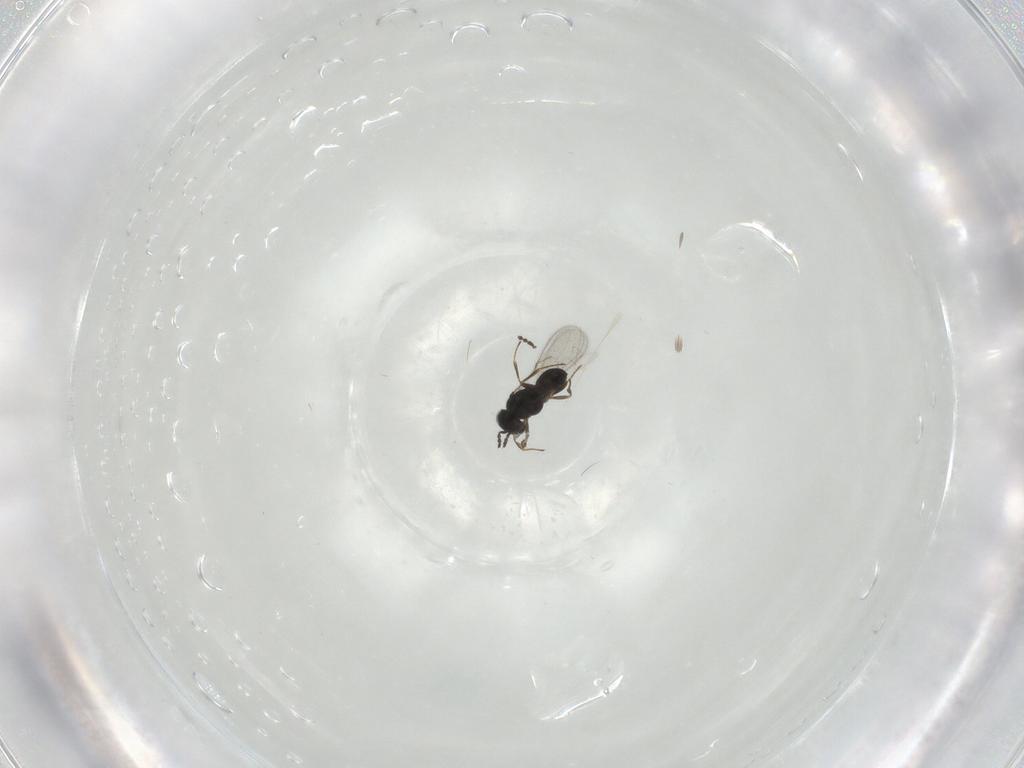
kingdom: Animalia
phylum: Arthropoda
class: Insecta
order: Hymenoptera
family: Scelionidae
